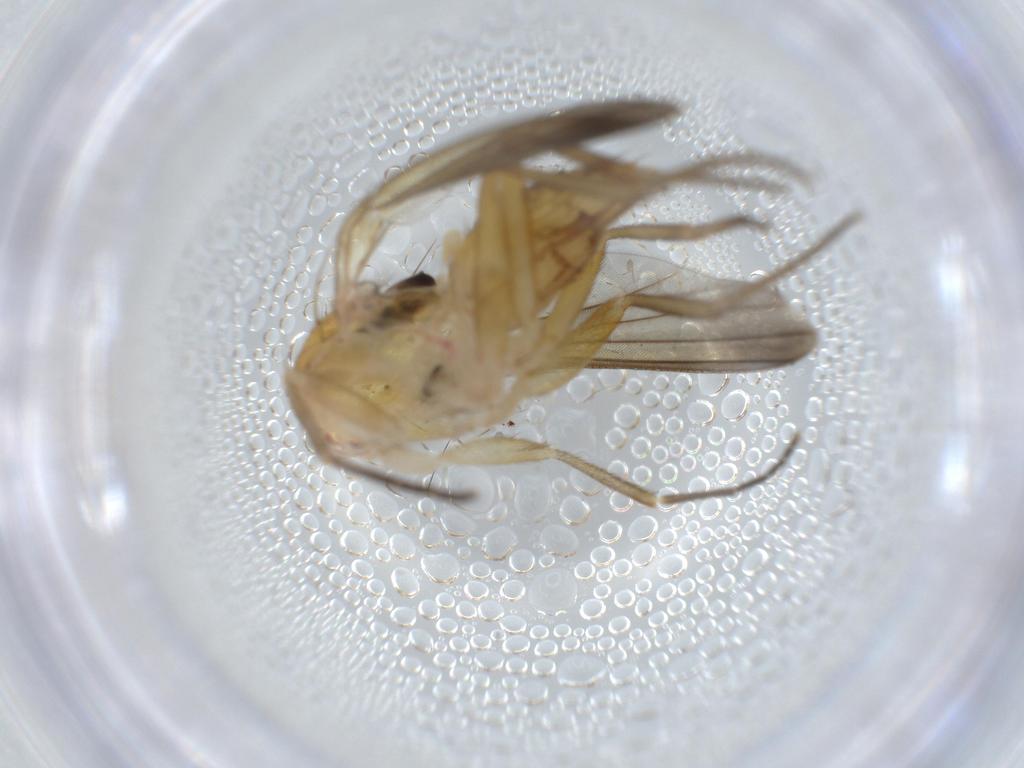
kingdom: Animalia
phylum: Arthropoda
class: Insecta
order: Diptera
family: Clusiidae
